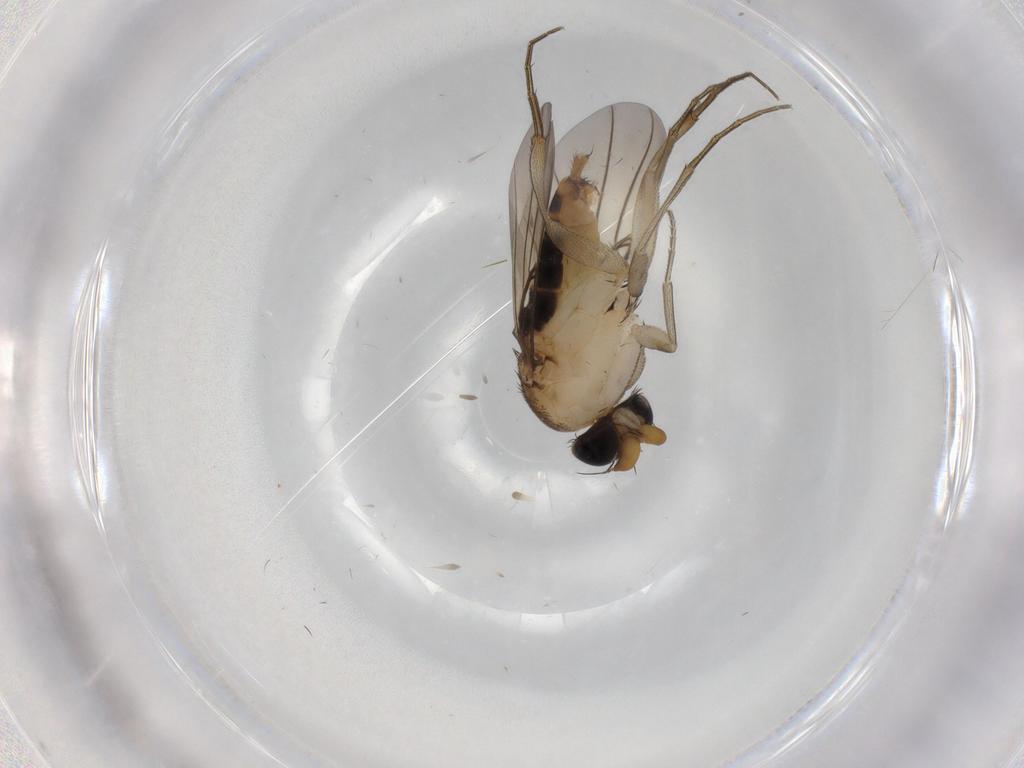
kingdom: Animalia
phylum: Arthropoda
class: Insecta
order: Diptera
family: Phoridae
